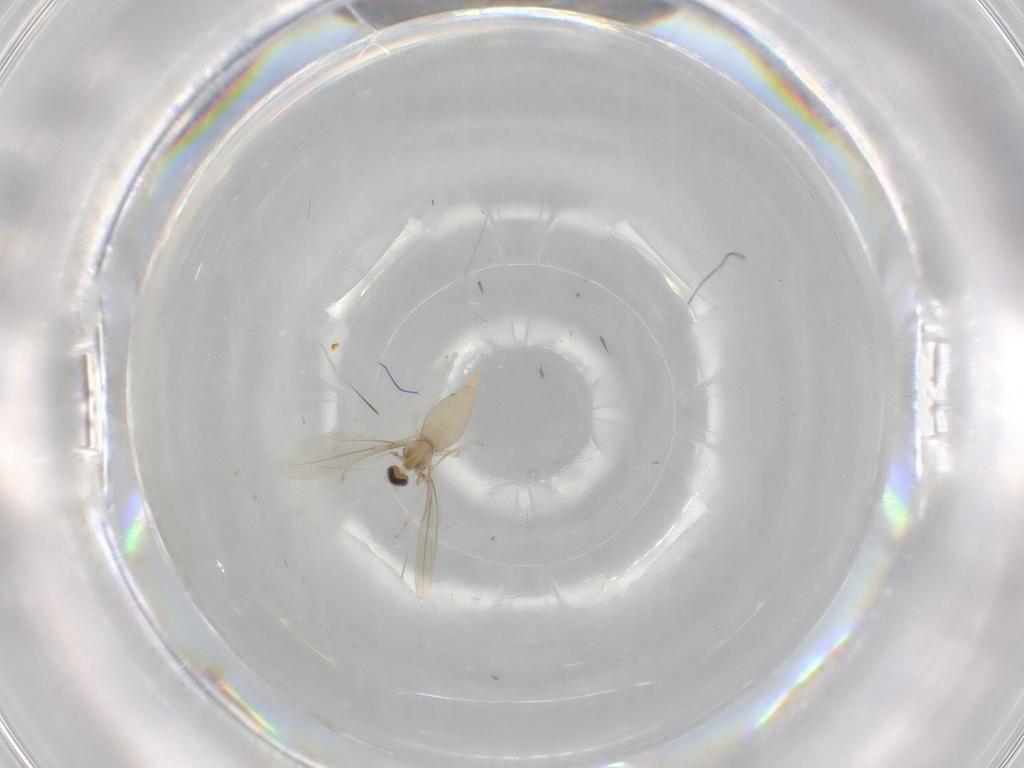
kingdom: Animalia
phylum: Arthropoda
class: Insecta
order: Diptera
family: Cecidomyiidae
